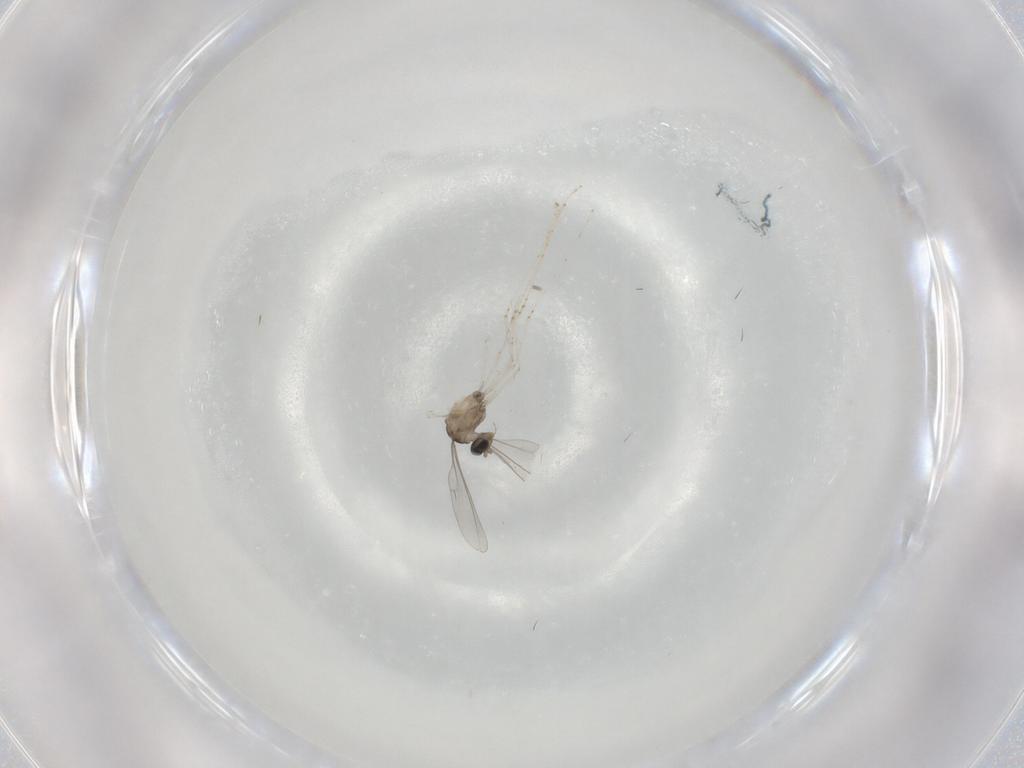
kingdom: Animalia
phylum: Arthropoda
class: Insecta
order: Diptera
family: Cecidomyiidae
